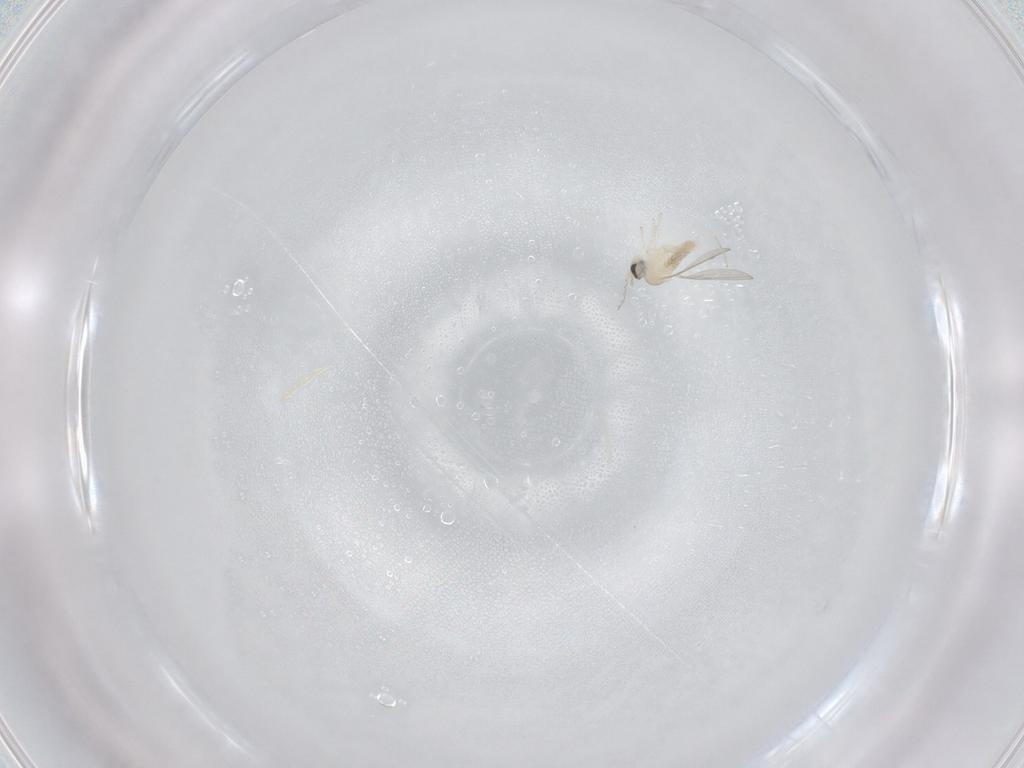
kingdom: Animalia
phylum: Arthropoda
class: Insecta
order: Diptera
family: Cecidomyiidae
